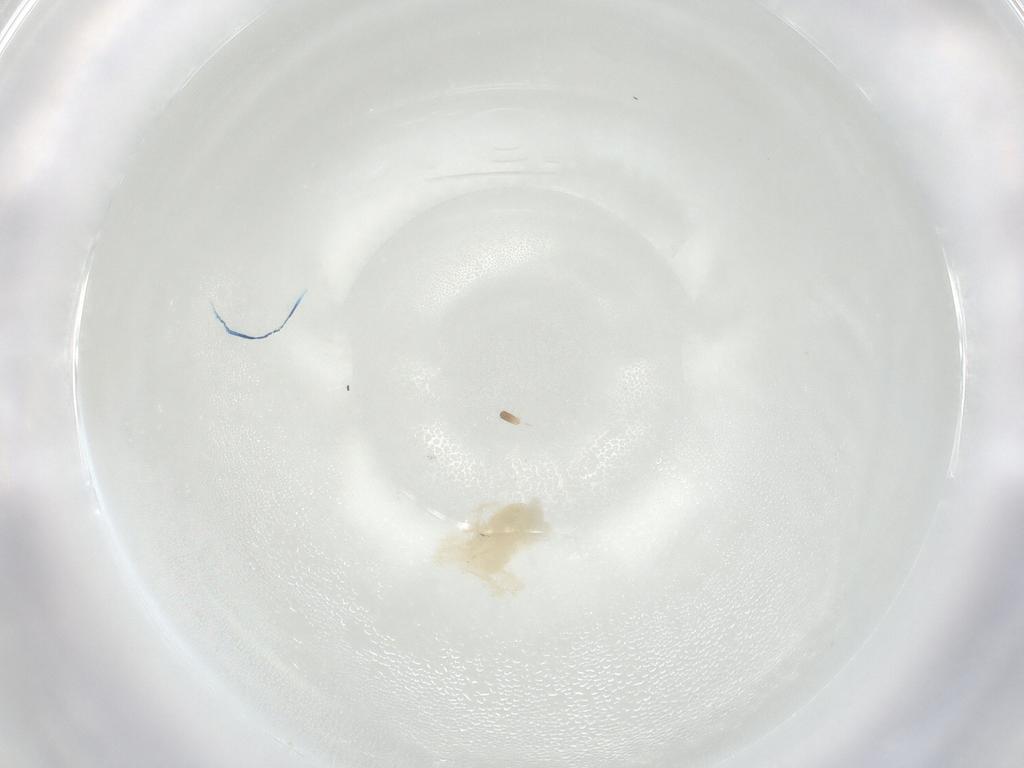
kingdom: Animalia
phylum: Arthropoda
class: Arachnida
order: Trombidiformes
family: Anystidae
